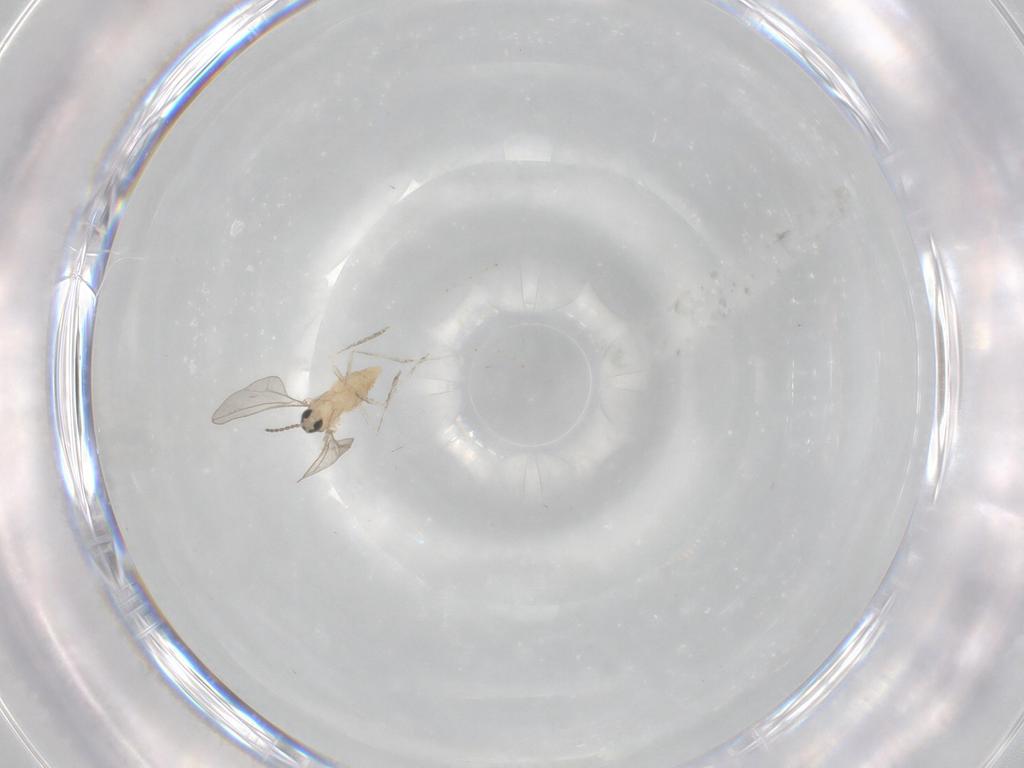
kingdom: Animalia
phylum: Arthropoda
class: Insecta
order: Diptera
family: Cecidomyiidae
